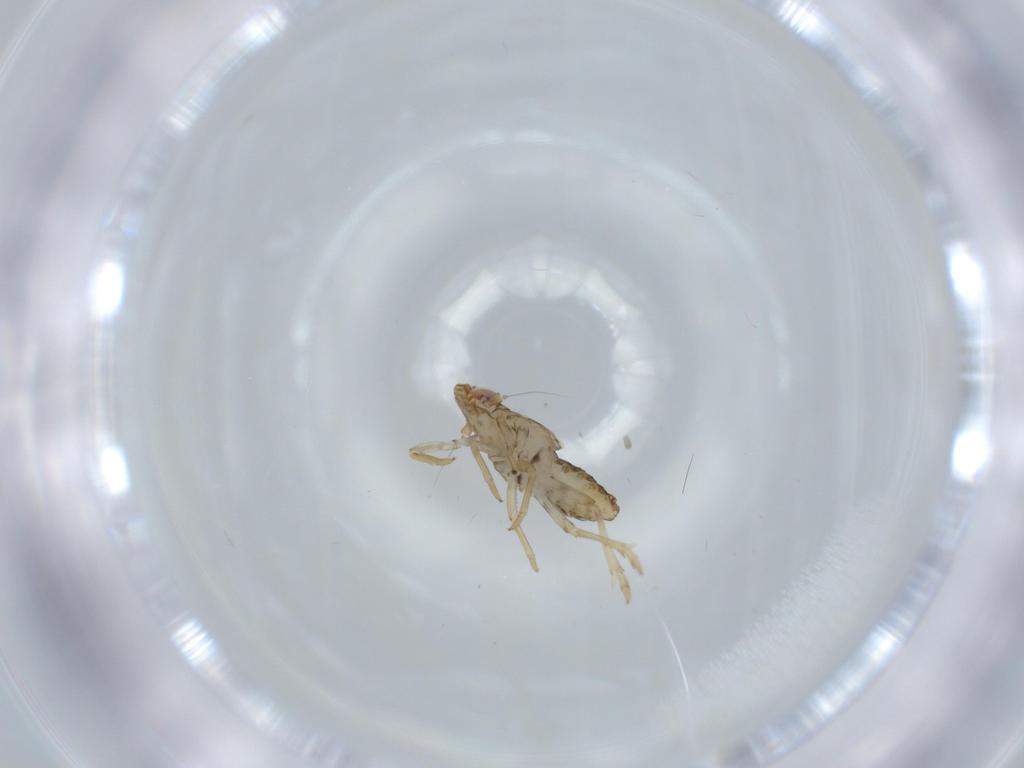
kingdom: Animalia
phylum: Arthropoda
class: Insecta
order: Hemiptera
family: Delphacidae
